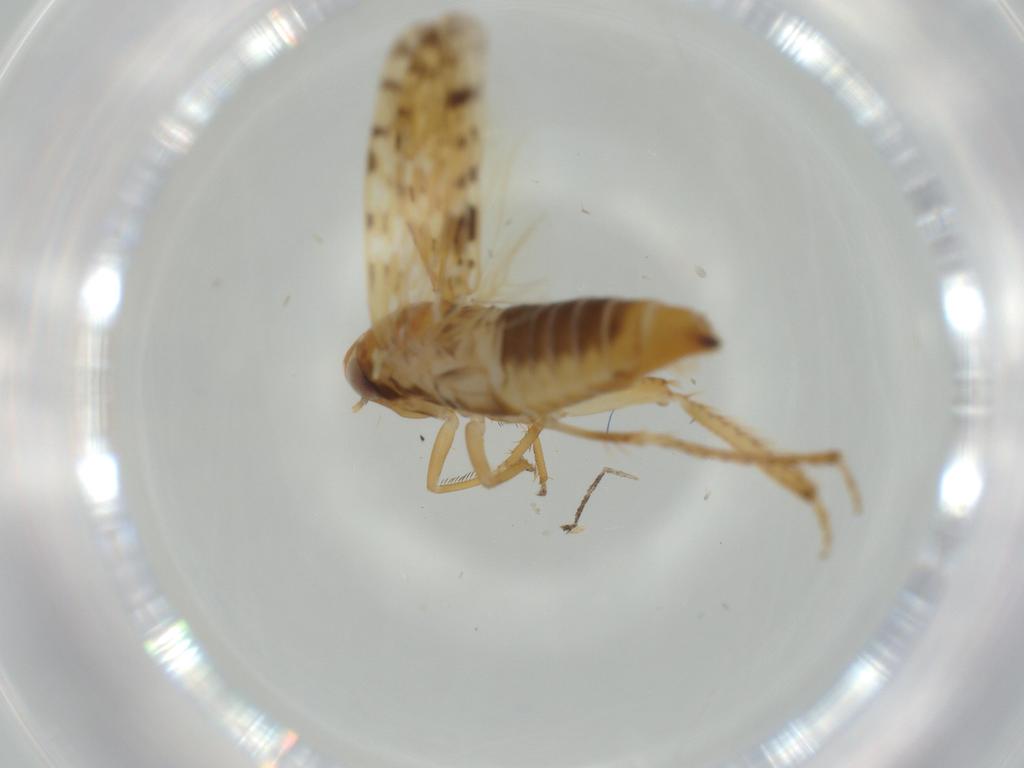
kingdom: Animalia
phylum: Arthropoda
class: Insecta
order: Hemiptera
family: Cicadellidae
